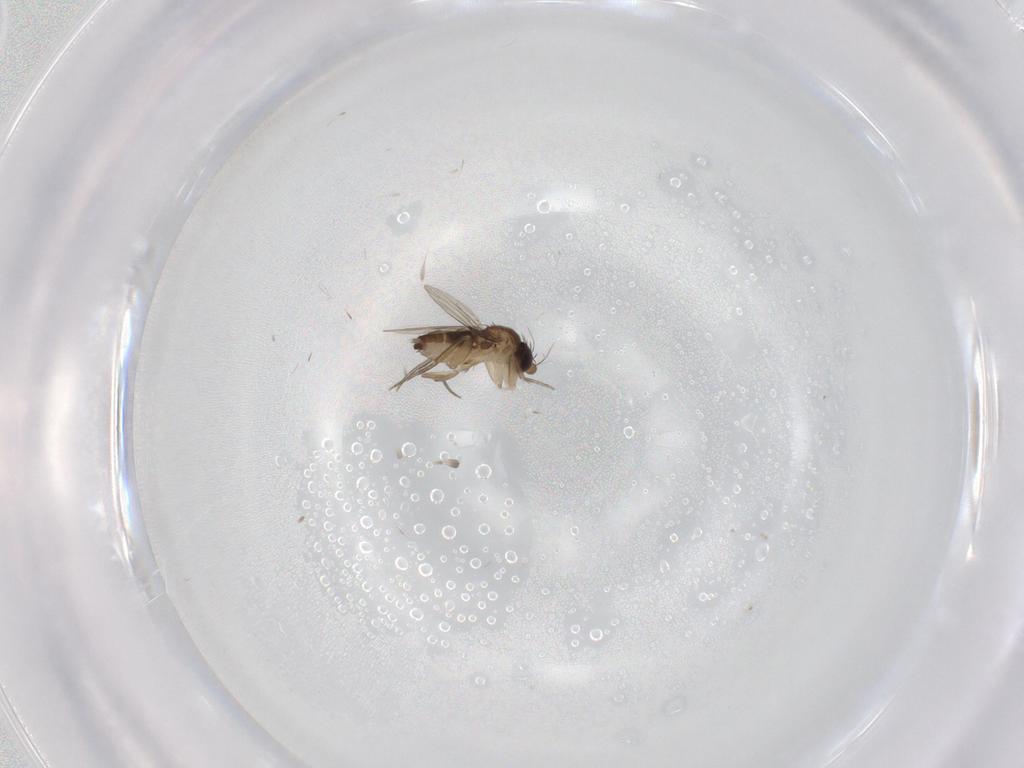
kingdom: Animalia
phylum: Arthropoda
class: Insecta
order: Diptera
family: Phoridae
